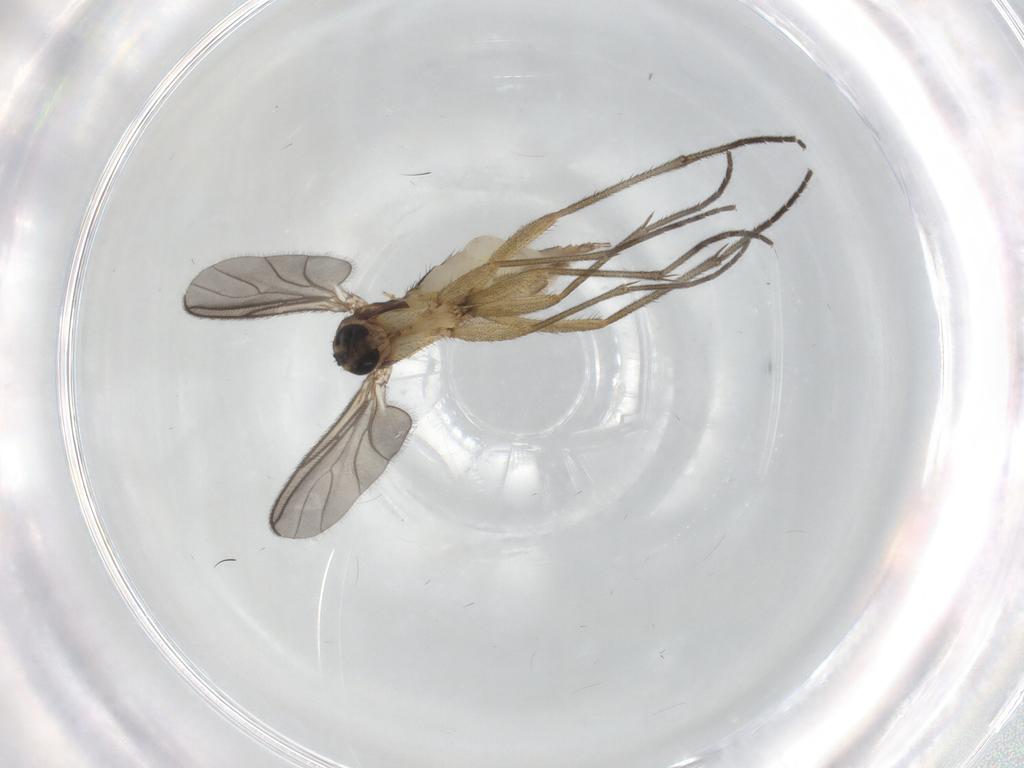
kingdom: Animalia
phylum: Arthropoda
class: Insecta
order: Diptera
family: Sciaridae
